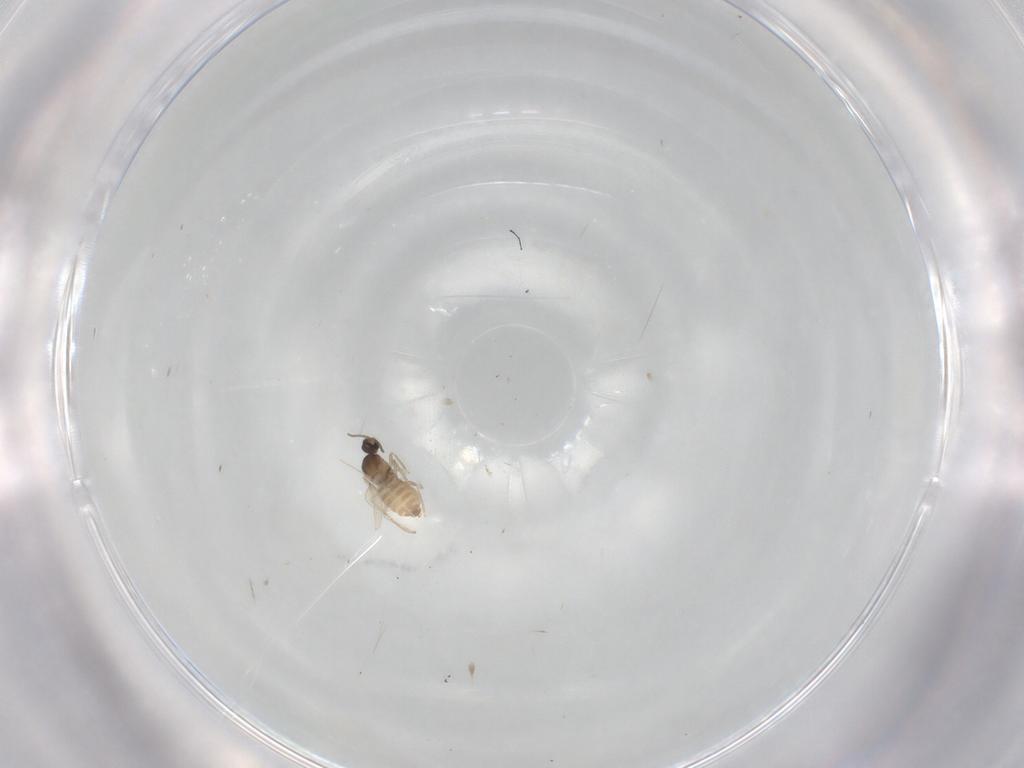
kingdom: Animalia
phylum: Arthropoda
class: Insecta
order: Diptera
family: Cecidomyiidae
